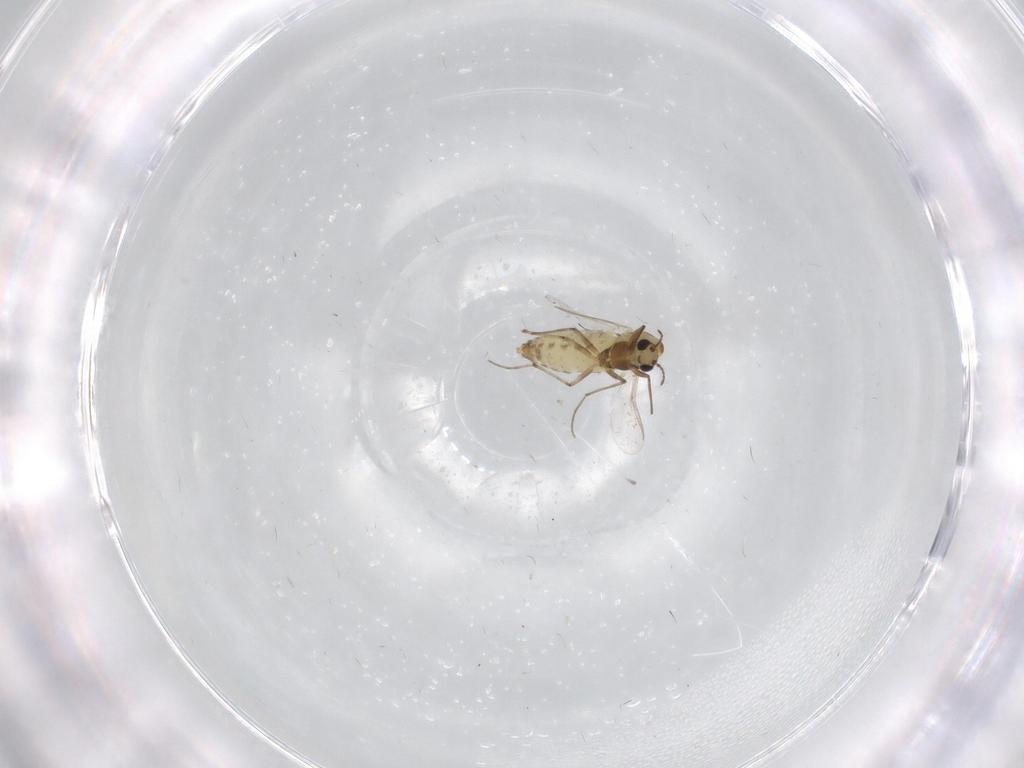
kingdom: Animalia
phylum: Arthropoda
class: Insecta
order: Diptera
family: Chironomidae
